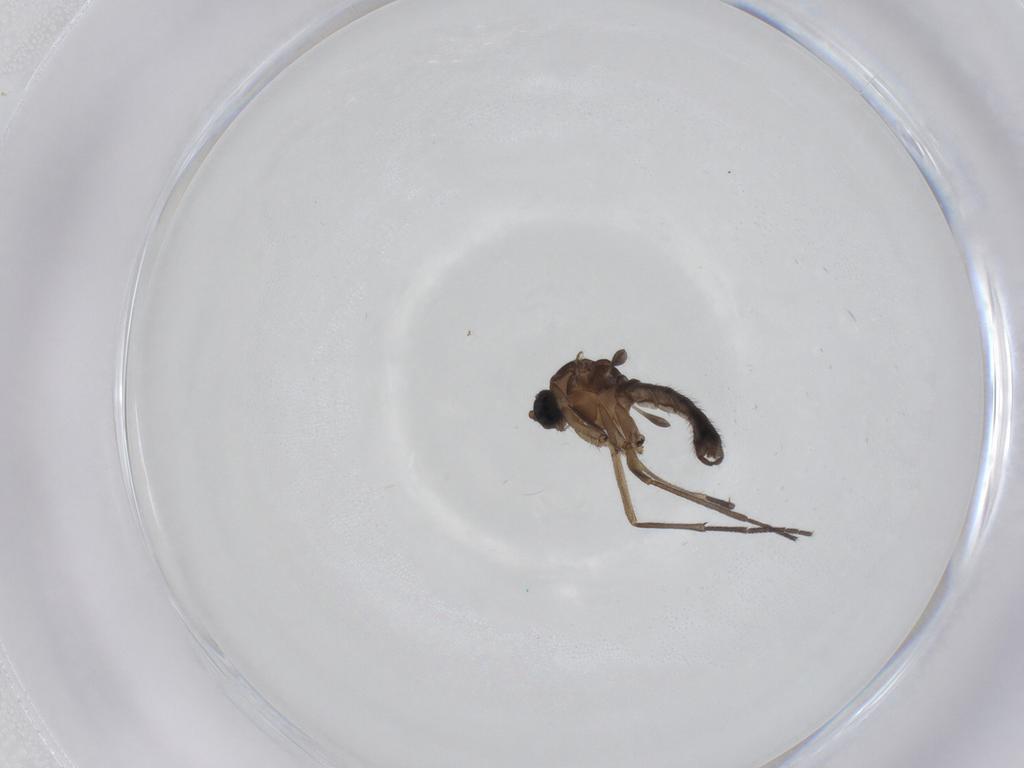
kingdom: Animalia
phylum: Arthropoda
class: Insecta
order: Diptera
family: Sciaridae
